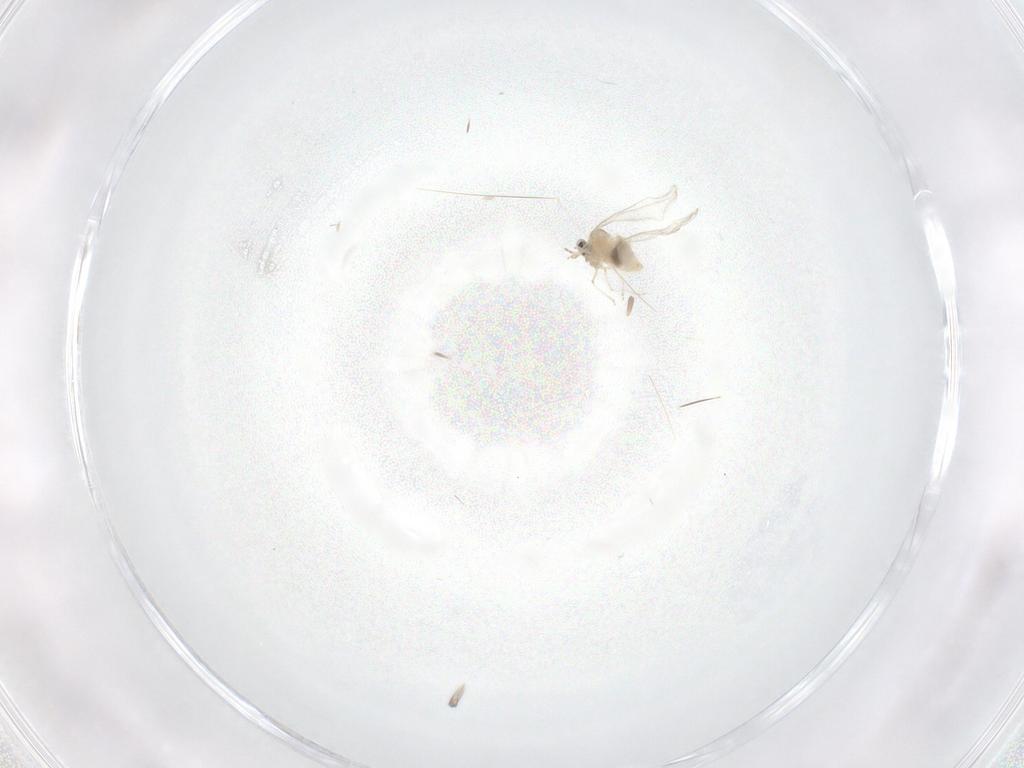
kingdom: Animalia
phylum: Arthropoda
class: Insecta
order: Diptera
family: Cecidomyiidae
